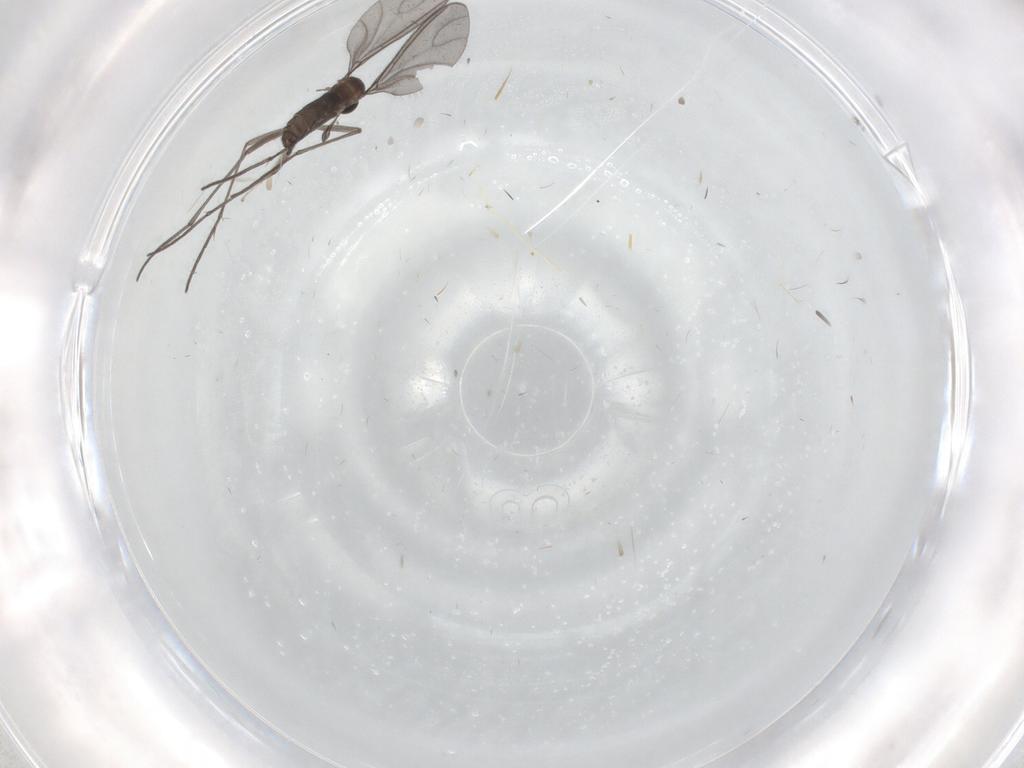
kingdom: Animalia
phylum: Arthropoda
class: Insecta
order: Diptera
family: Sciaridae
